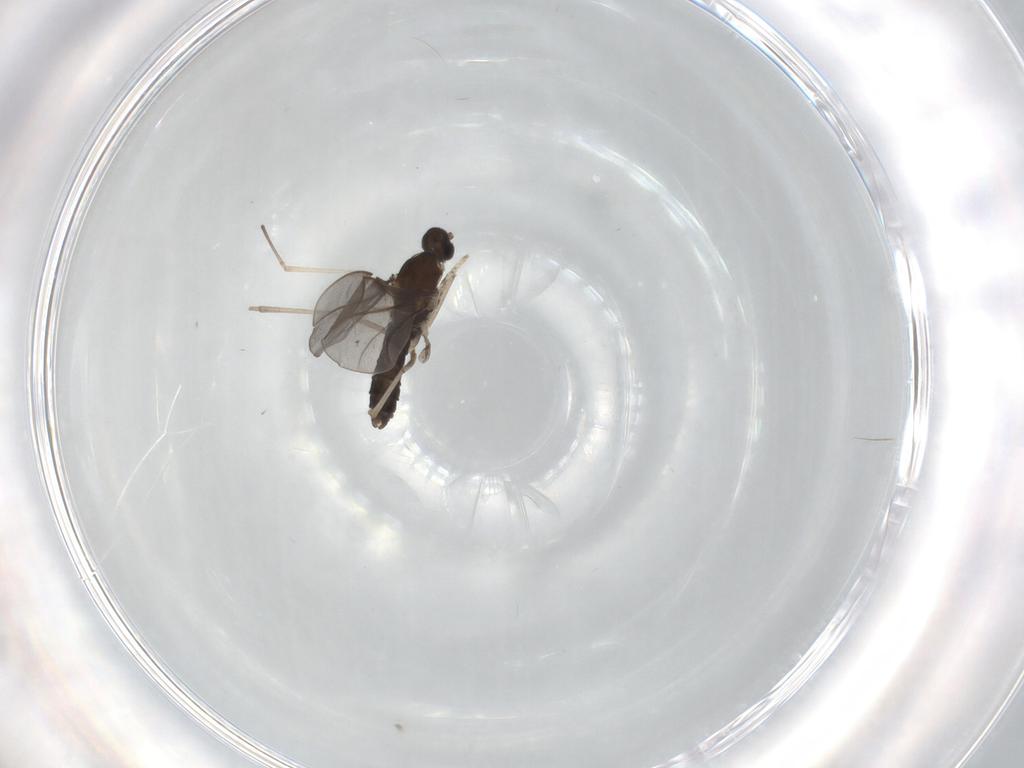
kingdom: Animalia
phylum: Arthropoda
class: Insecta
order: Diptera
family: Cecidomyiidae
